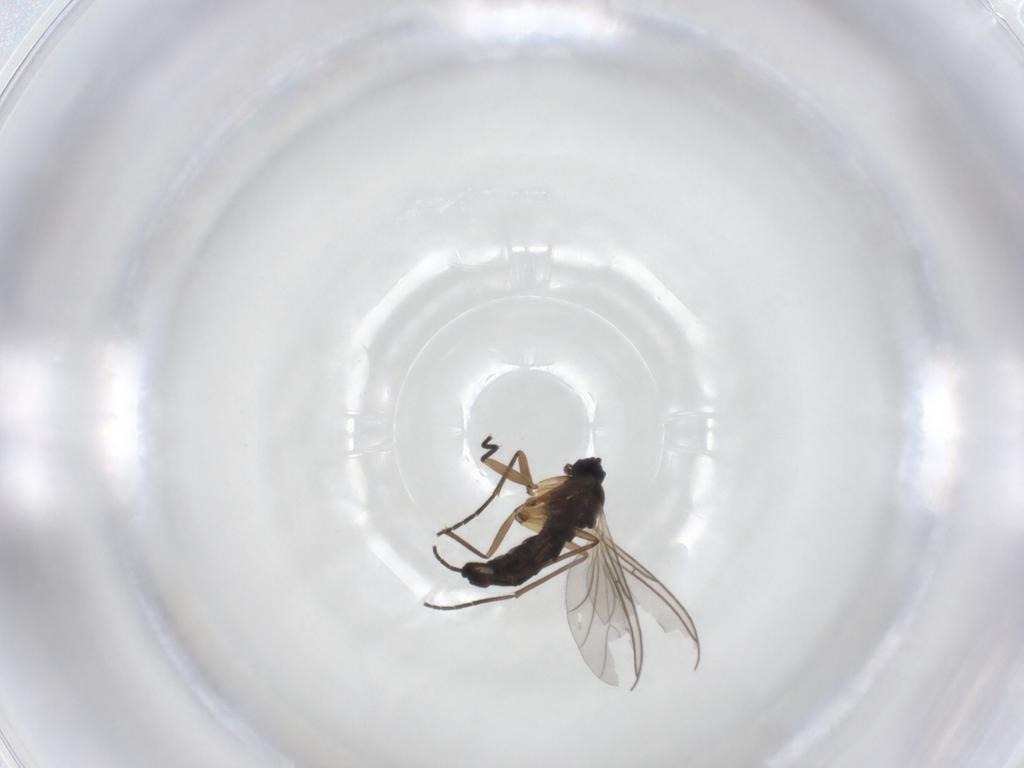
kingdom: Animalia
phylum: Arthropoda
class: Insecta
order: Diptera
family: Sciaridae
